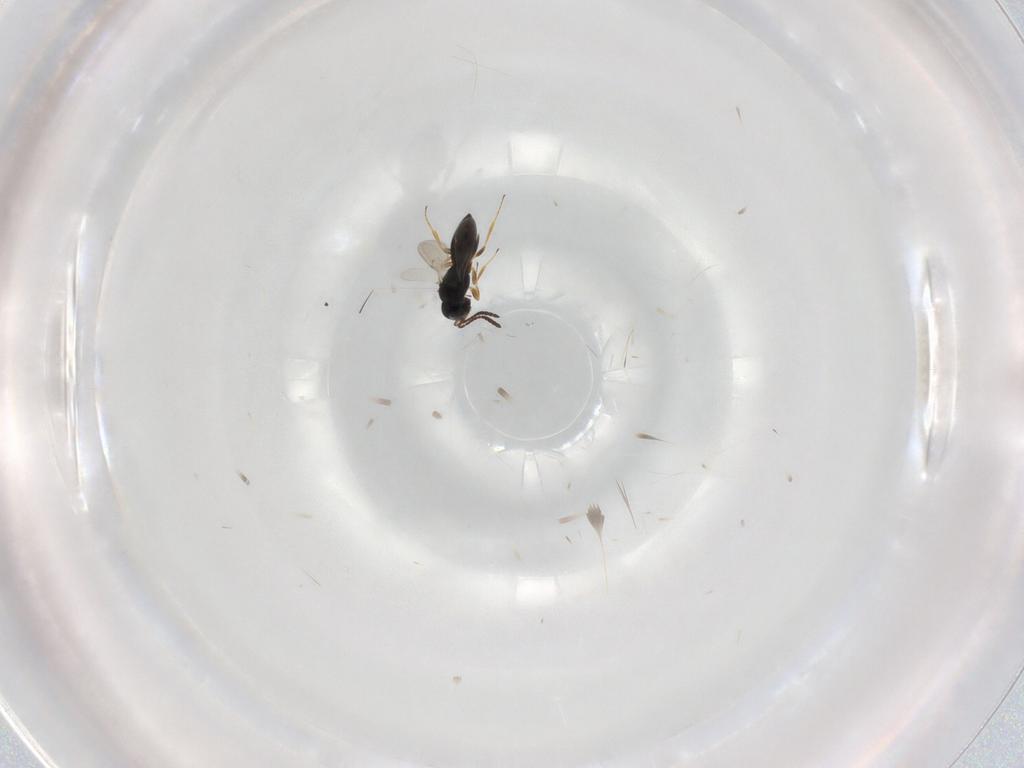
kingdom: Animalia
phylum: Arthropoda
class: Insecta
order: Hymenoptera
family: Scelionidae
